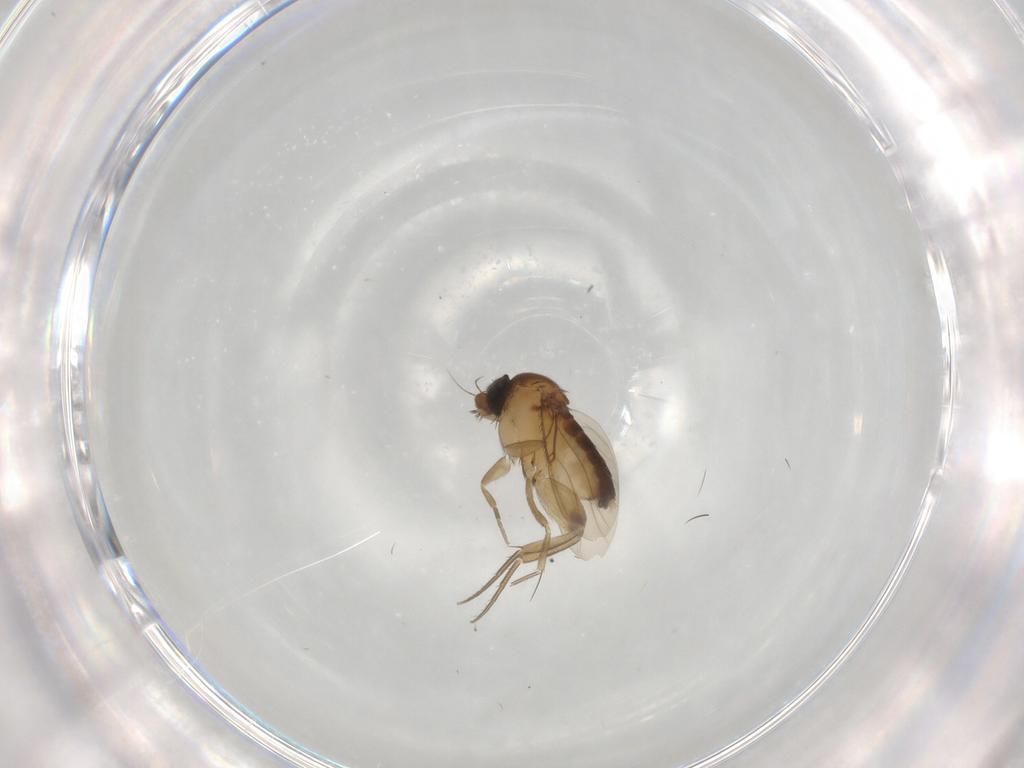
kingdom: Animalia
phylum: Arthropoda
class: Insecta
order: Diptera
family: Phoridae
